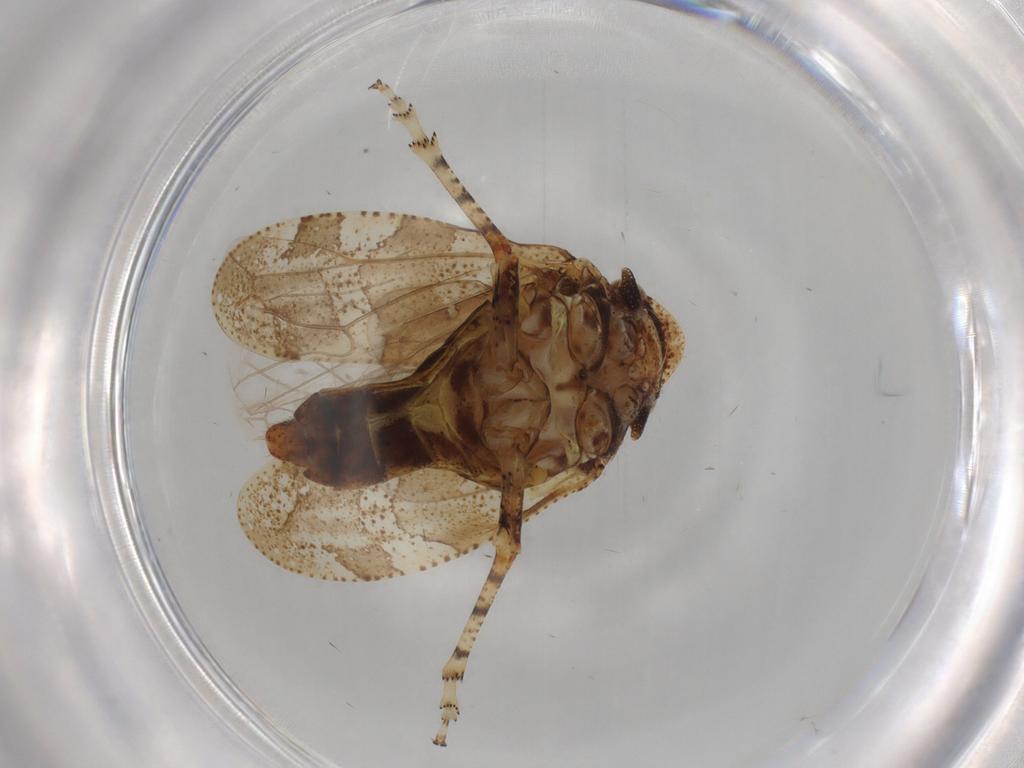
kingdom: Animalia
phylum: Arthropoda
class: Insecta
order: Hemiptera
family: Tettigometridae
